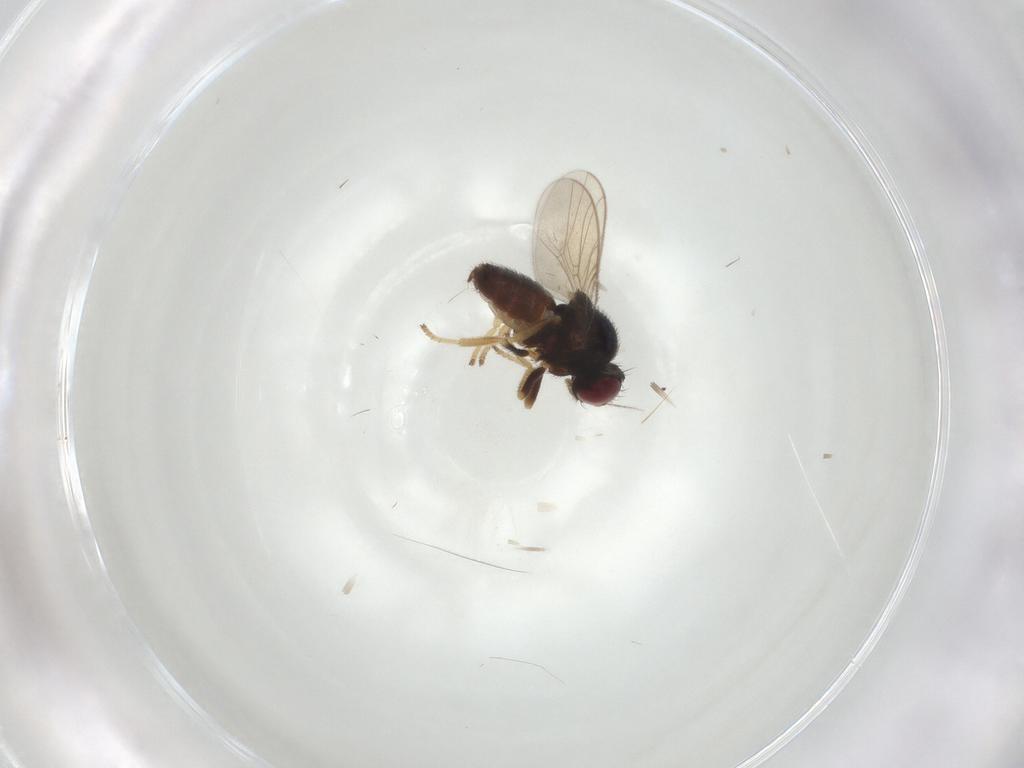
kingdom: Animalia
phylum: Arthropoda
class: Insecta
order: Diptera
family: Chloropidae
